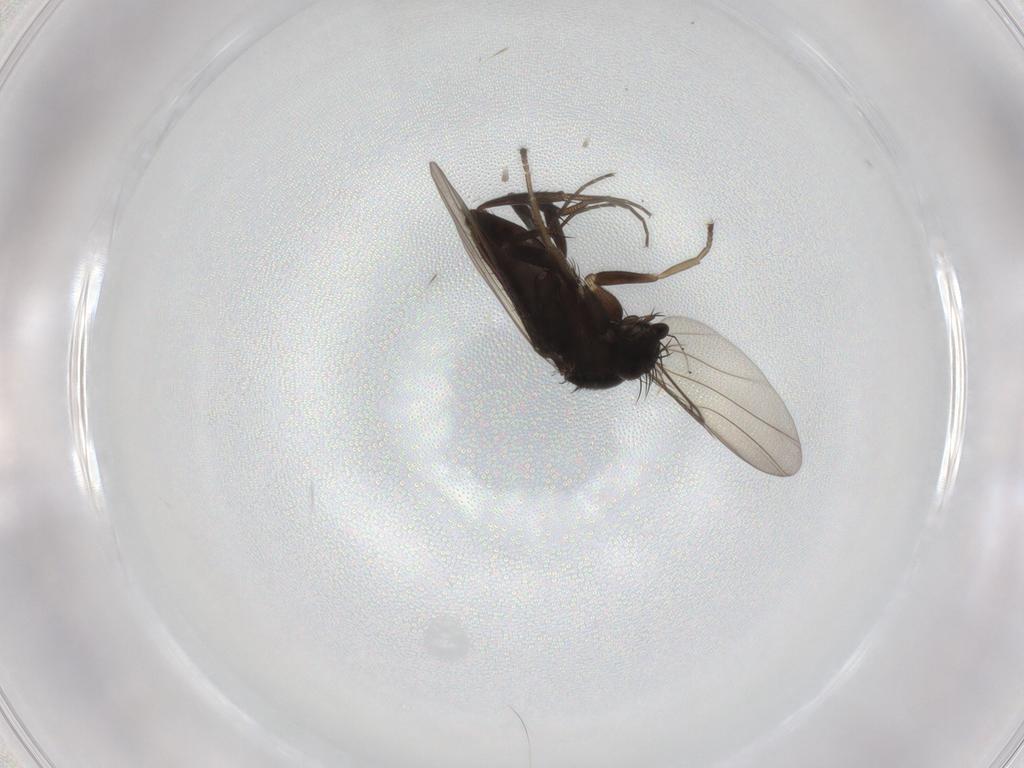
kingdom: Animalia
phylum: Arthropoda
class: Insecta
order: Diptera
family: Phoridae
